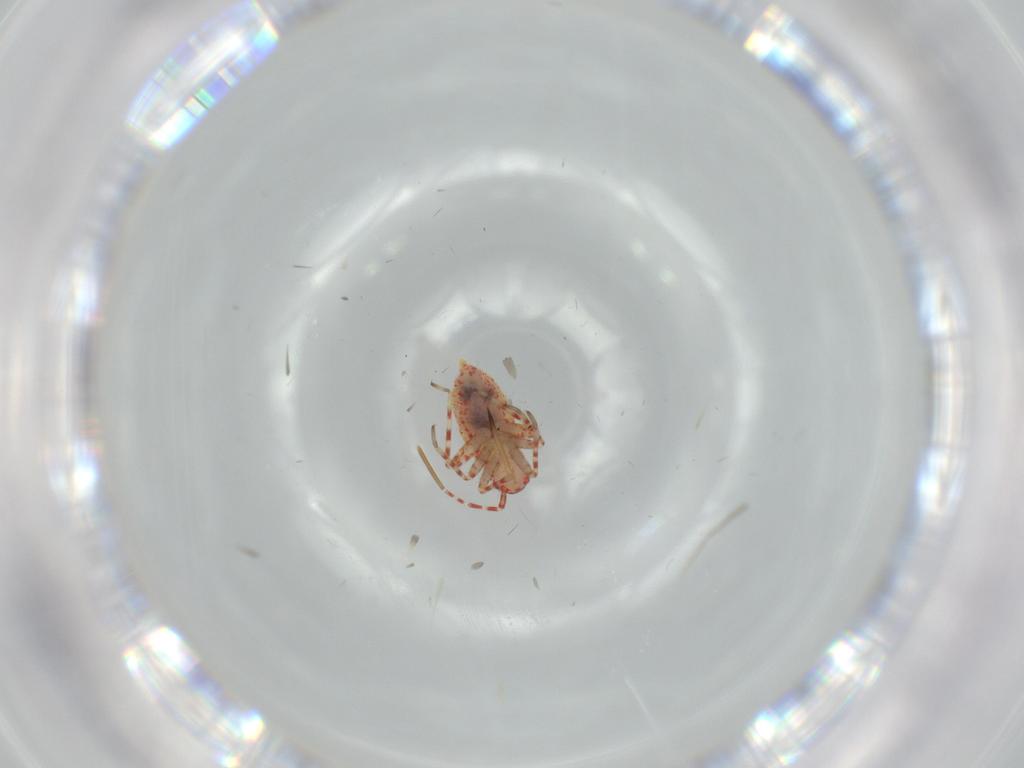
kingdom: Animalia
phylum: Arthropoda
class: Insecta
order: Hemiptera
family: Miridae
